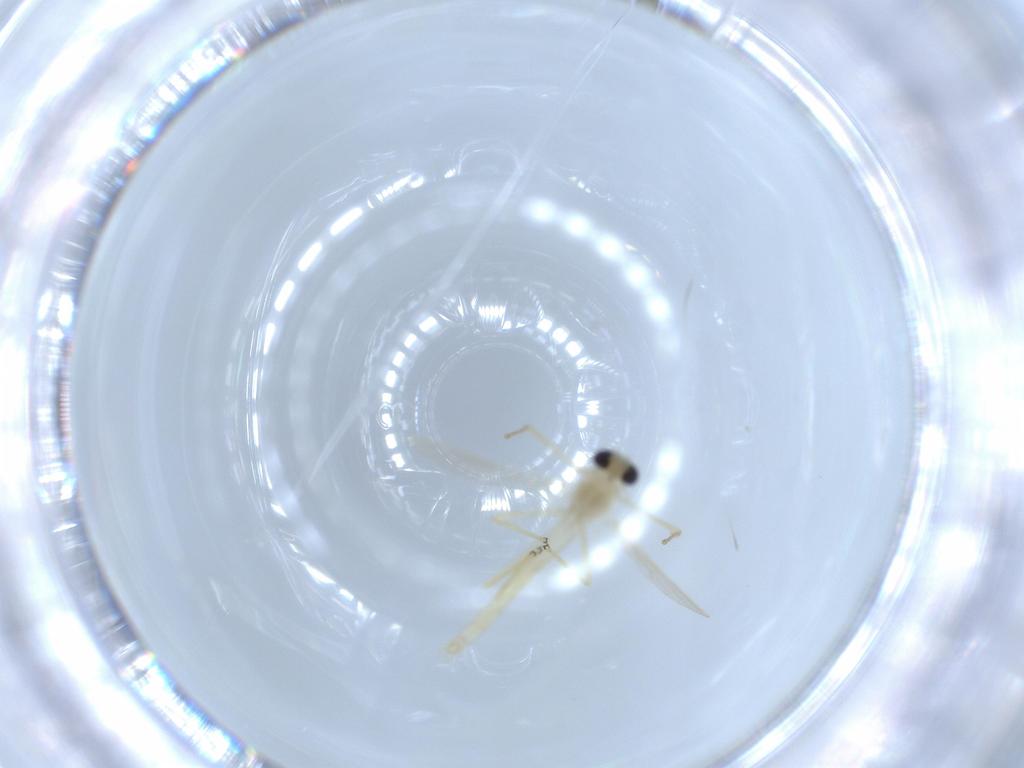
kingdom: Animalia
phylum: Arthropoda
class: Insecta
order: Diptera
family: Chironomidae
